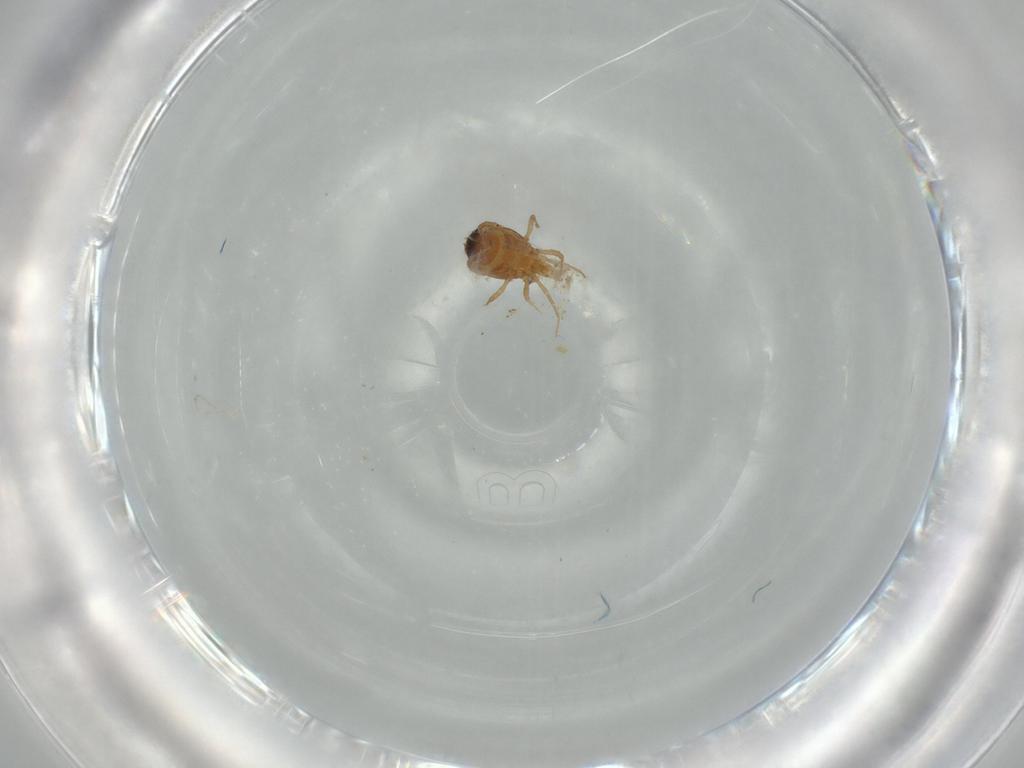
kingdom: Animalia
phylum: Arthropoda
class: Arachnida
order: Mesostigmata
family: Blattisociidae
